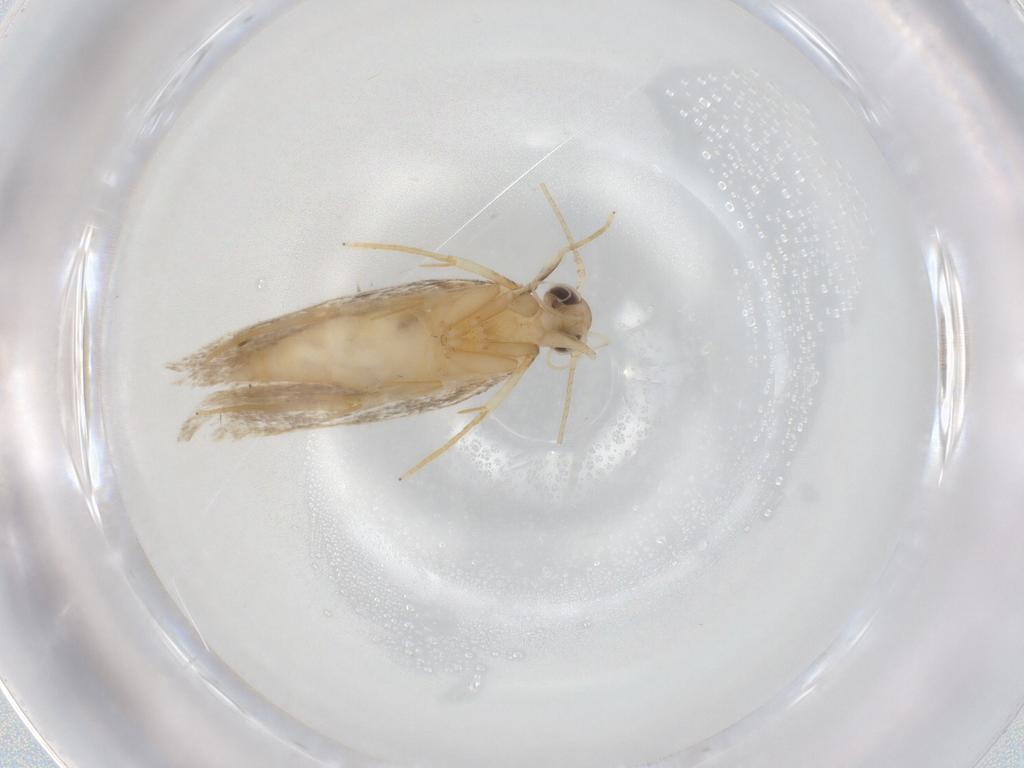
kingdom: Animalia
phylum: Arthropoda
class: Insecta
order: Lepidoptera
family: Autostichidae
